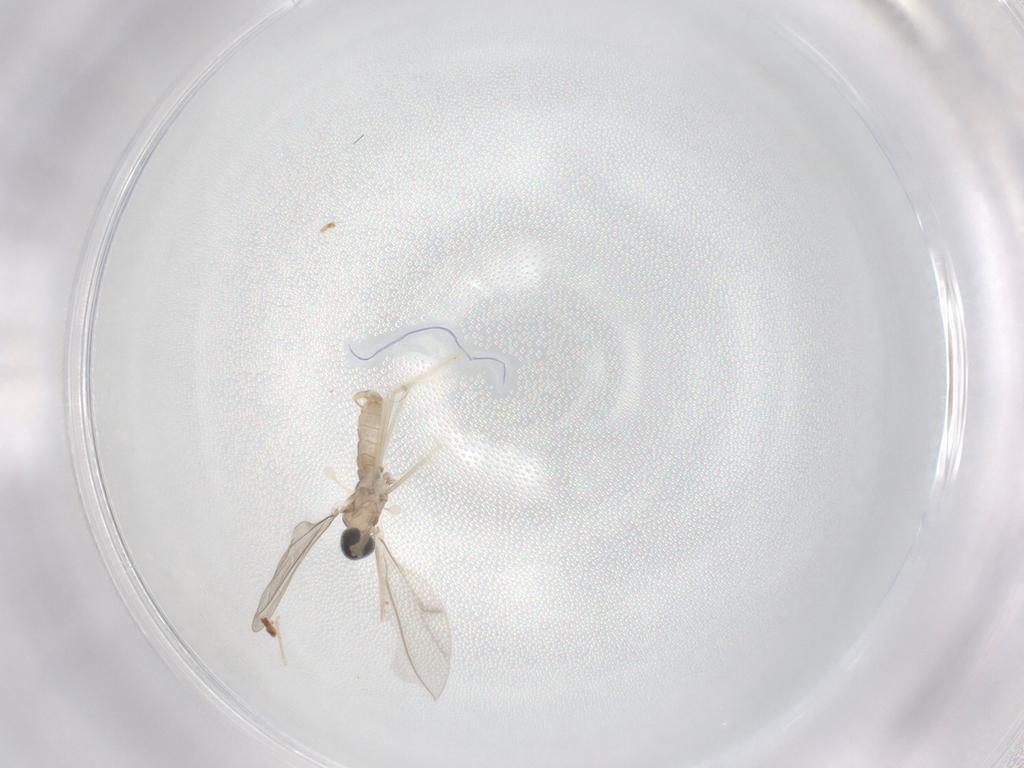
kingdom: Animalia
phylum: Arthropoda
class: Insecta
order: Diptera
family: Cecidomyiidae
